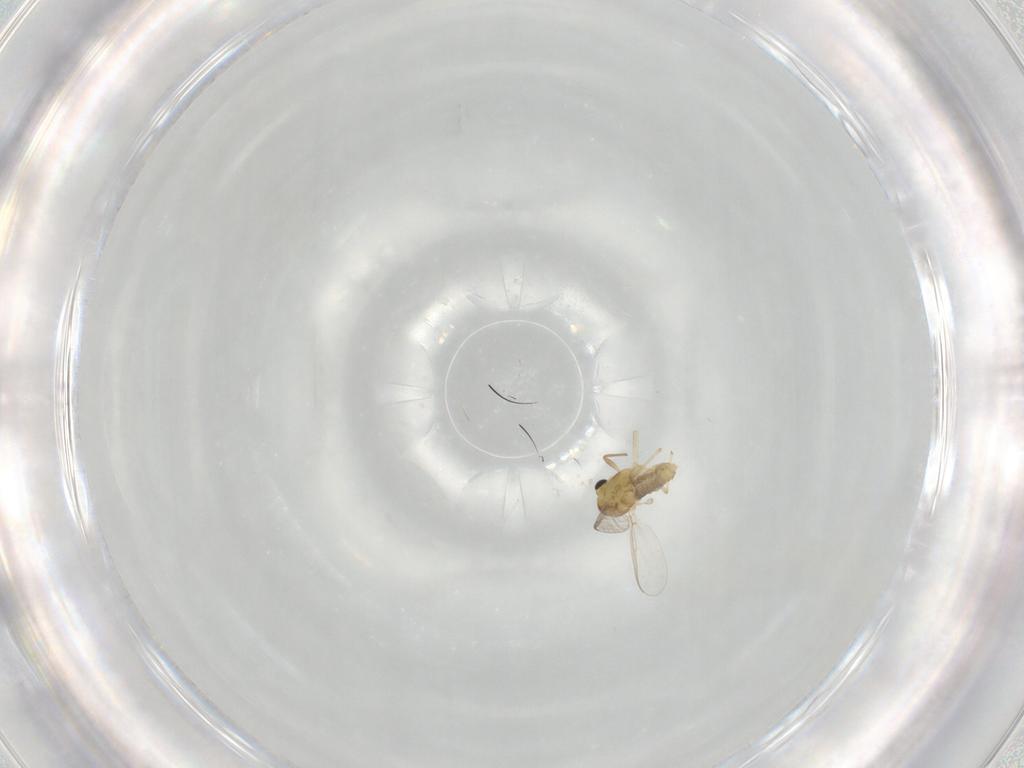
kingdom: Animalia
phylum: Arthropoda
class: Insecta
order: Diptera
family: Chironomidae
